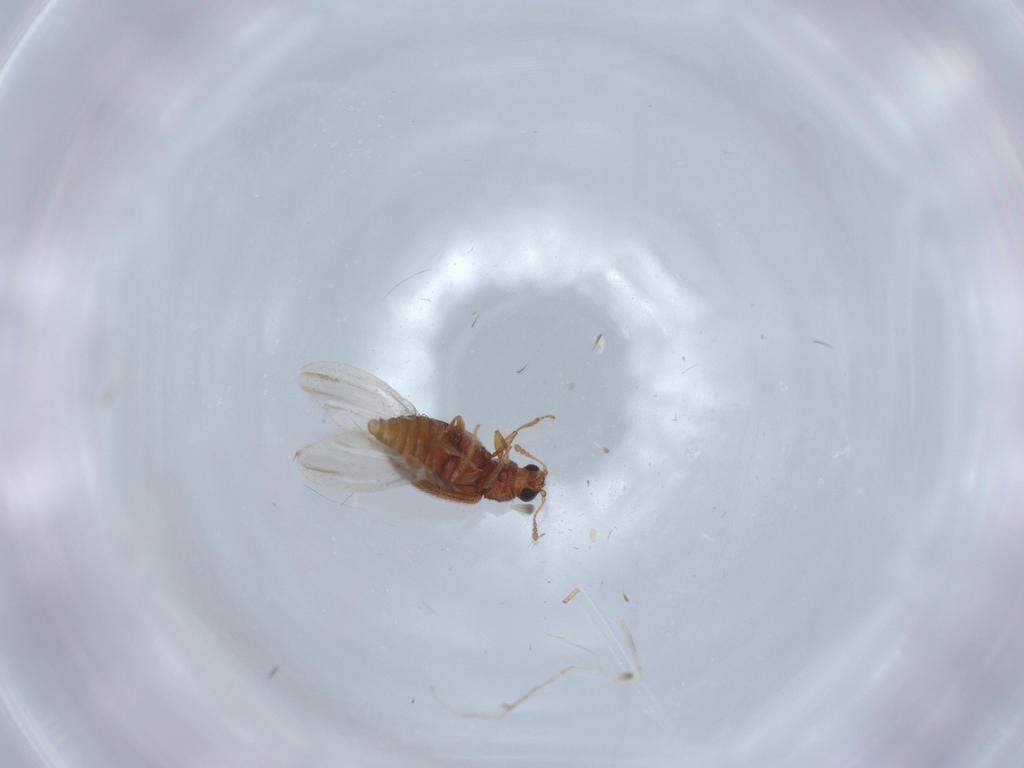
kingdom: Animalia
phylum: Arthropoda
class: Insecta
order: Coleoptera
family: Latridiidae
